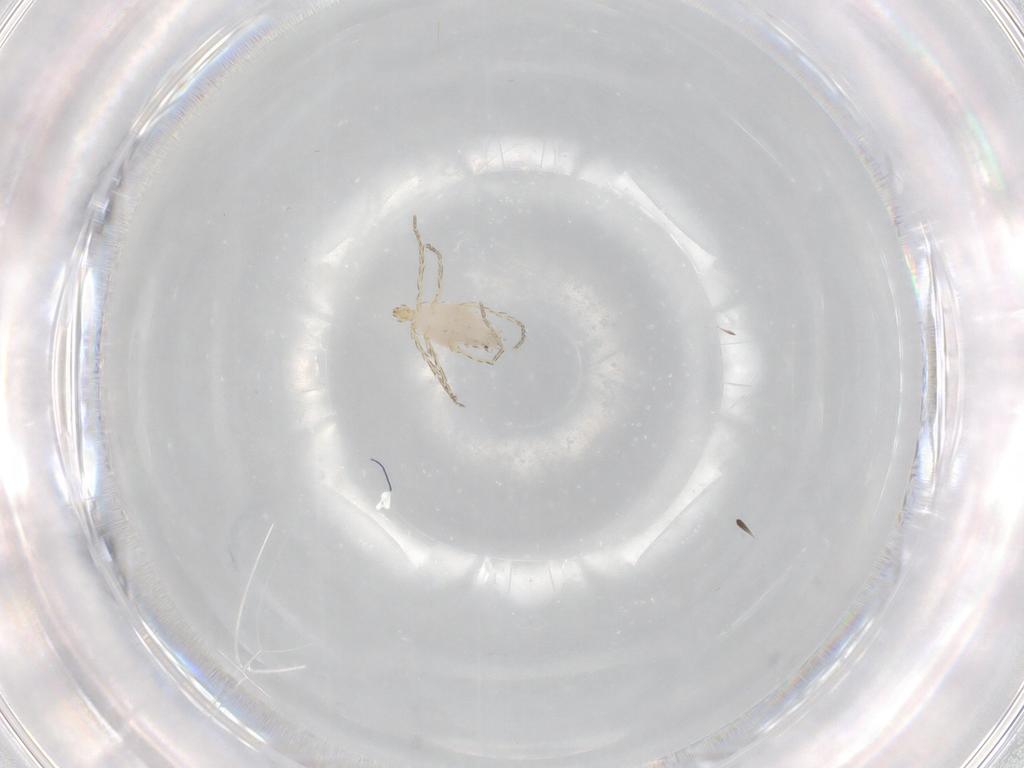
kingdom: Animalia
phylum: Arthropoda
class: Arachnida
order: Trombidiformes
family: Erythraeidae
